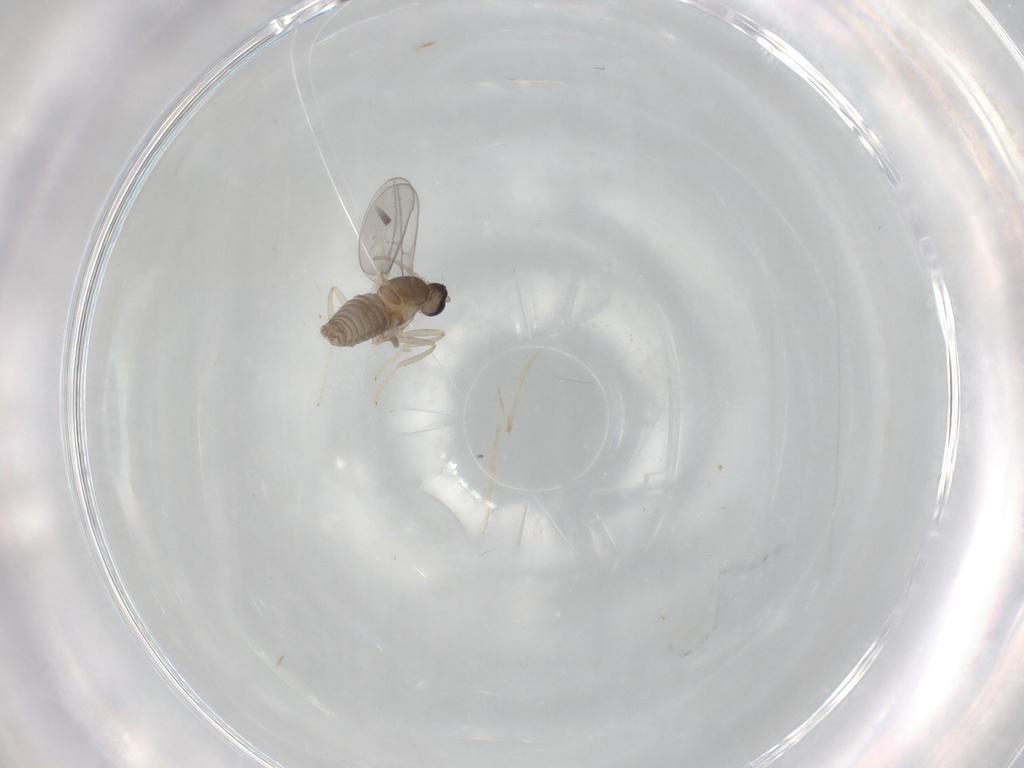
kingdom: Animalia
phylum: Arthropoda
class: Insecta
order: Diptera
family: Cecidomyiidae
